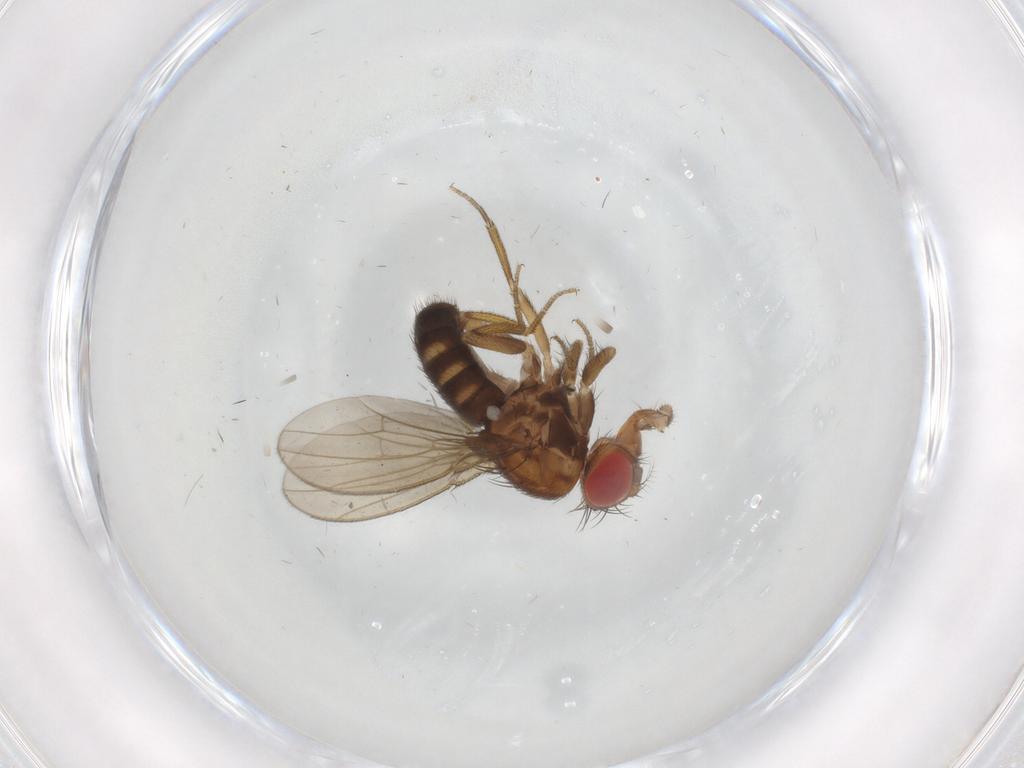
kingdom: Animalia
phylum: Arthropoda
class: Insecta
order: Diptera
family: Drosophilidae
